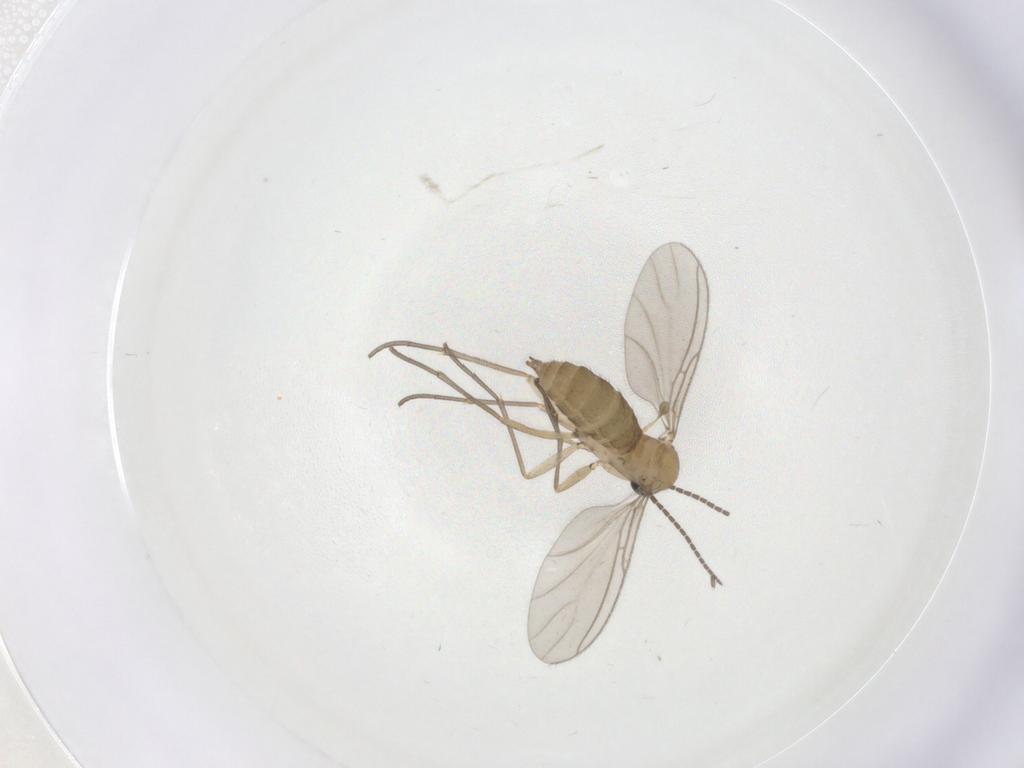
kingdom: Animalia
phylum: Arthropoda
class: Insecta
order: Diptera
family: Sciaridae
